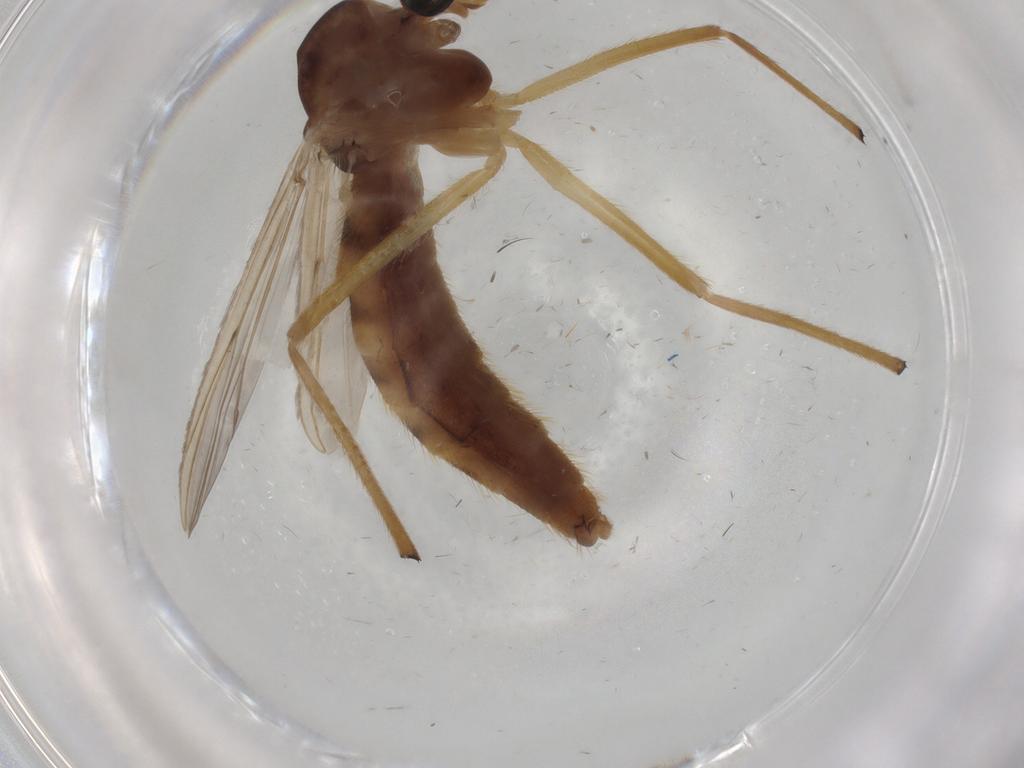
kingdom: Animalia
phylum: Arthropoda
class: Insecta
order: Diptera
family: Chironomidae
